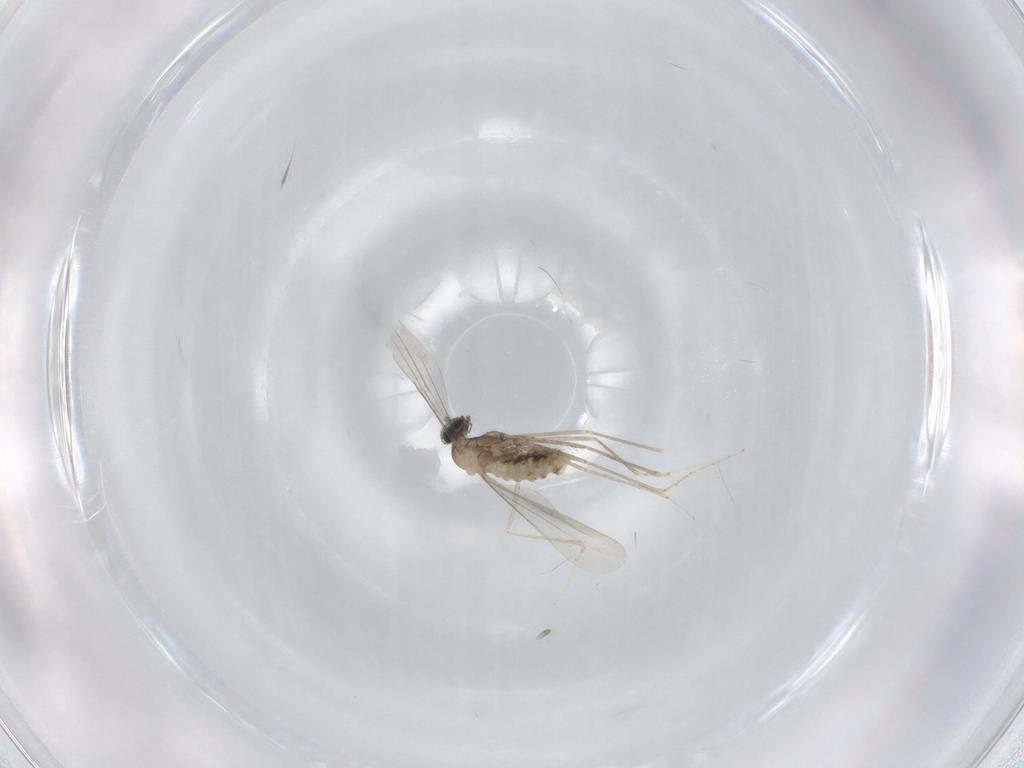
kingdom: Animalia
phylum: Arthropoda
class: Insecta
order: Diptera
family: Cecidomyiidae
